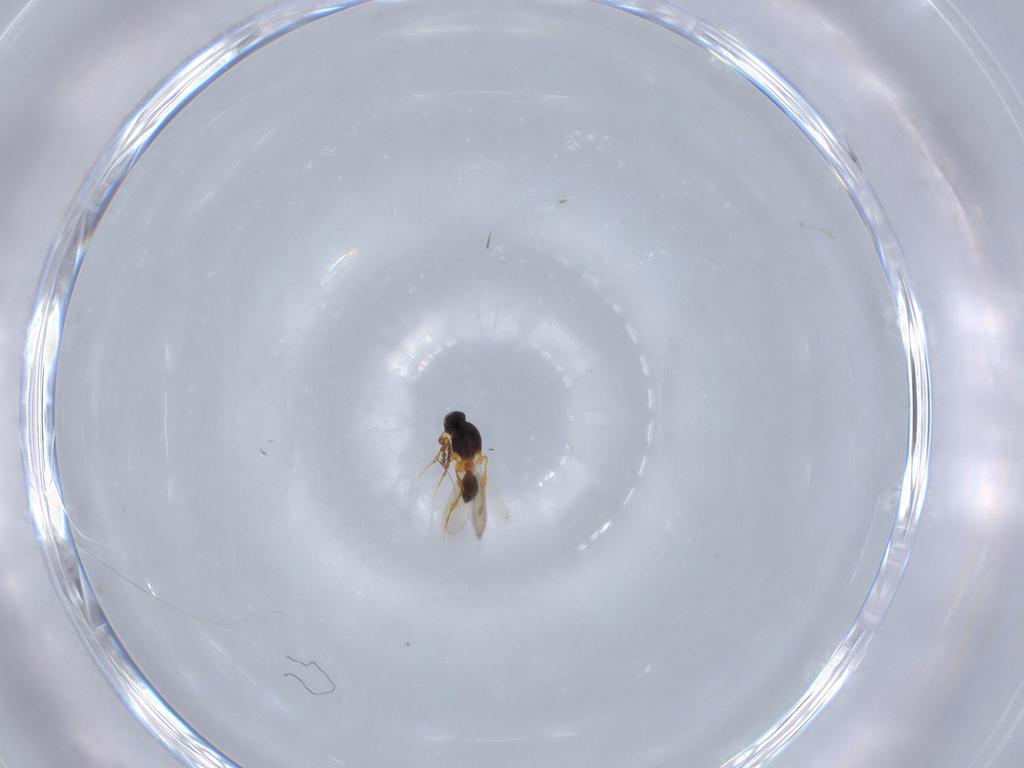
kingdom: Animalia
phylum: Arthropoda
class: Insecta
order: Hymenoptera
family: Platygastridae
